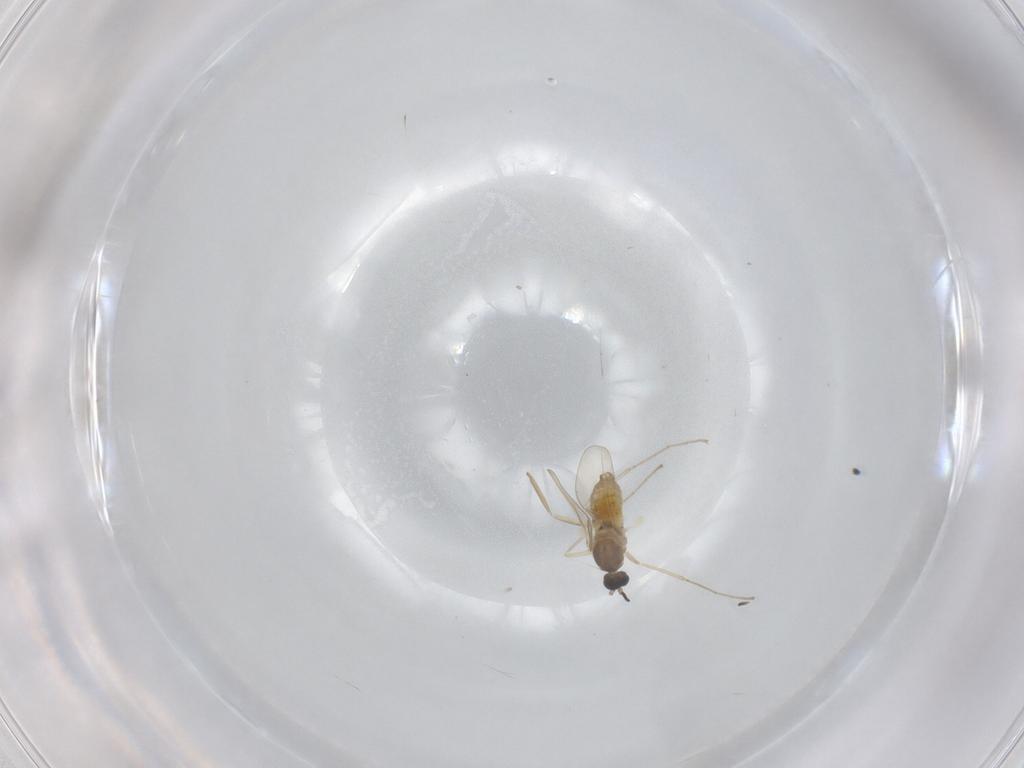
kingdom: Animalia
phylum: Arthropoda
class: Insecta
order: Diptera
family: Cecidomyiidae
